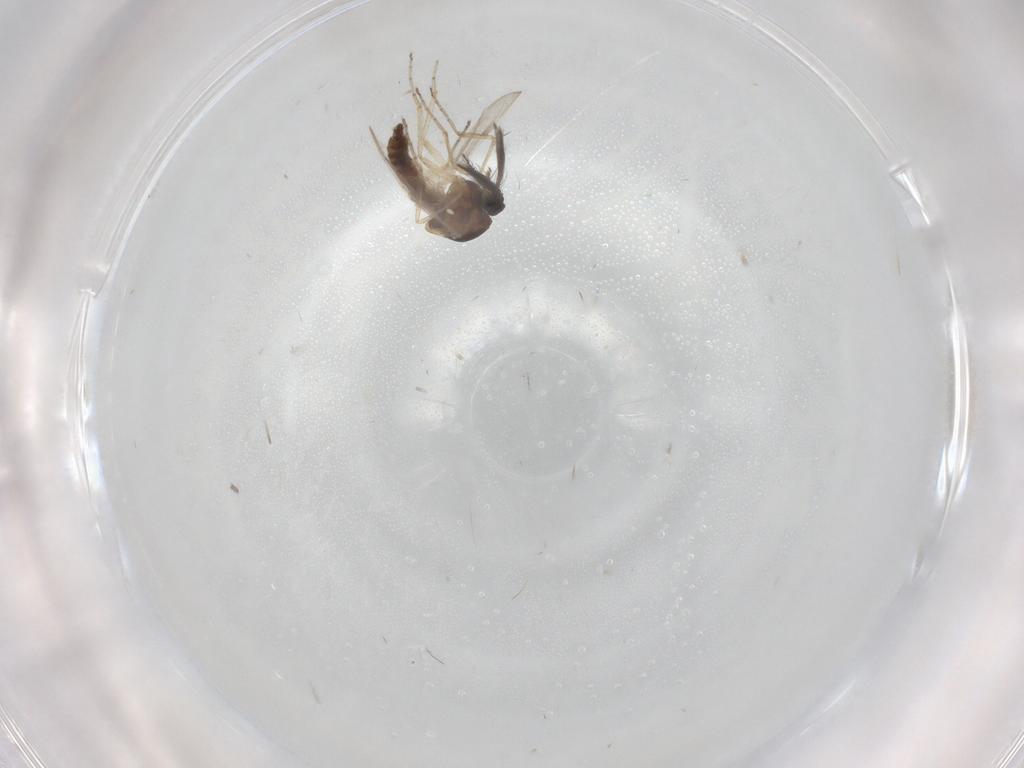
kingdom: Animalia
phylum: Arthropoda
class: Insecta
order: Diptera
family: Ceratopogonidae
